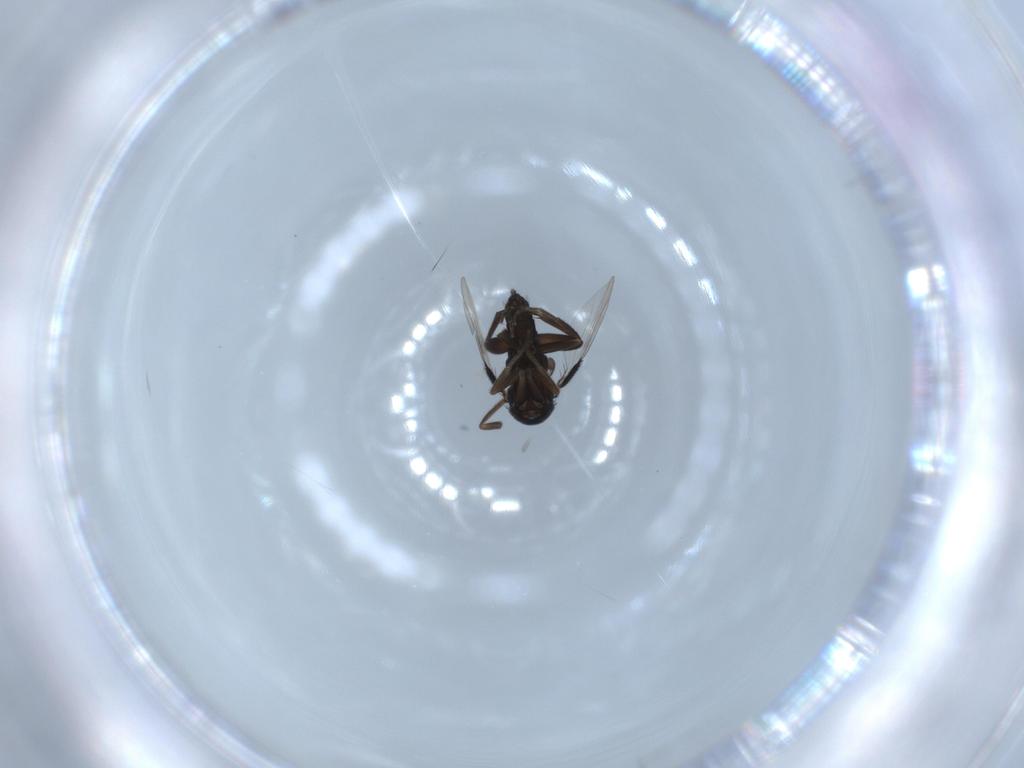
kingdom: Animalia
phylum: Arthropoda
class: Insecta
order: Diptera
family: Phoridae
